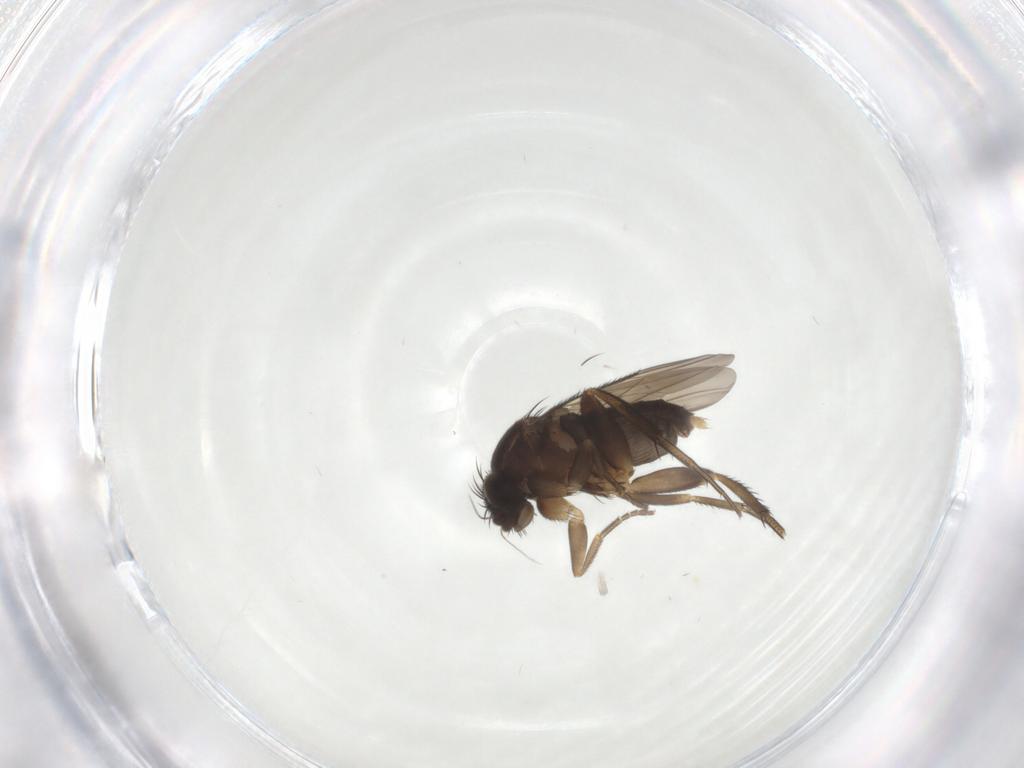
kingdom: Animalia
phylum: Arthropoda
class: Insecta
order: Diptera
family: Phoridae
